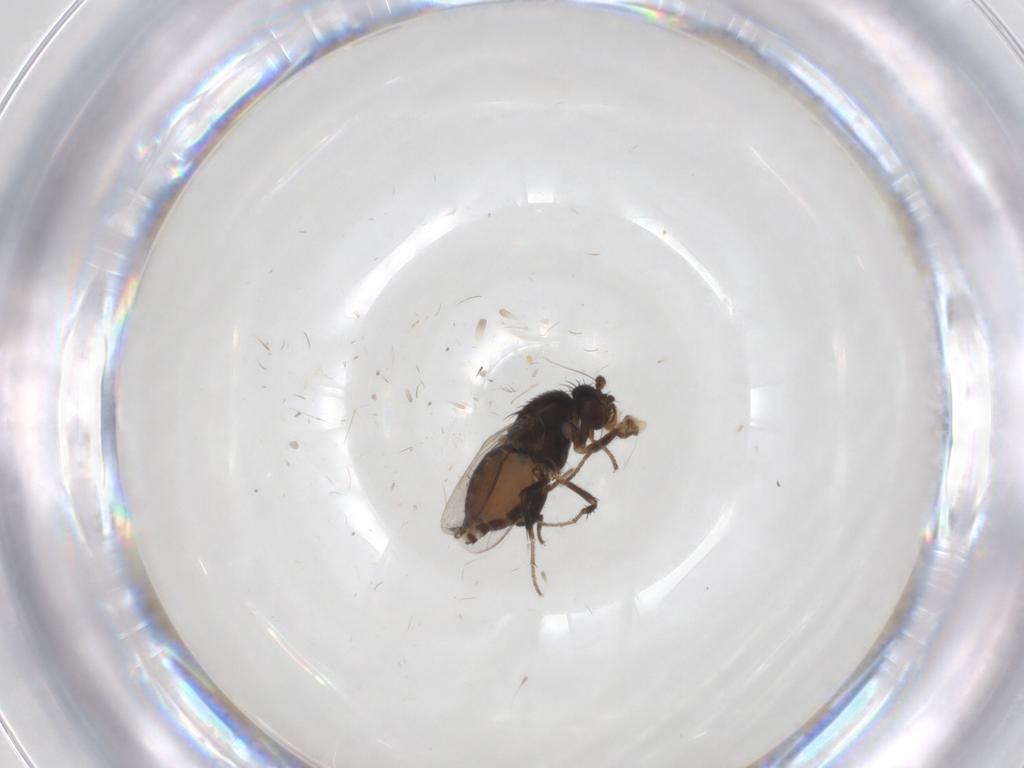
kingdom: Animalia
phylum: Arthropoda
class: Insecta
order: Diptera
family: Sphaeroceridae
